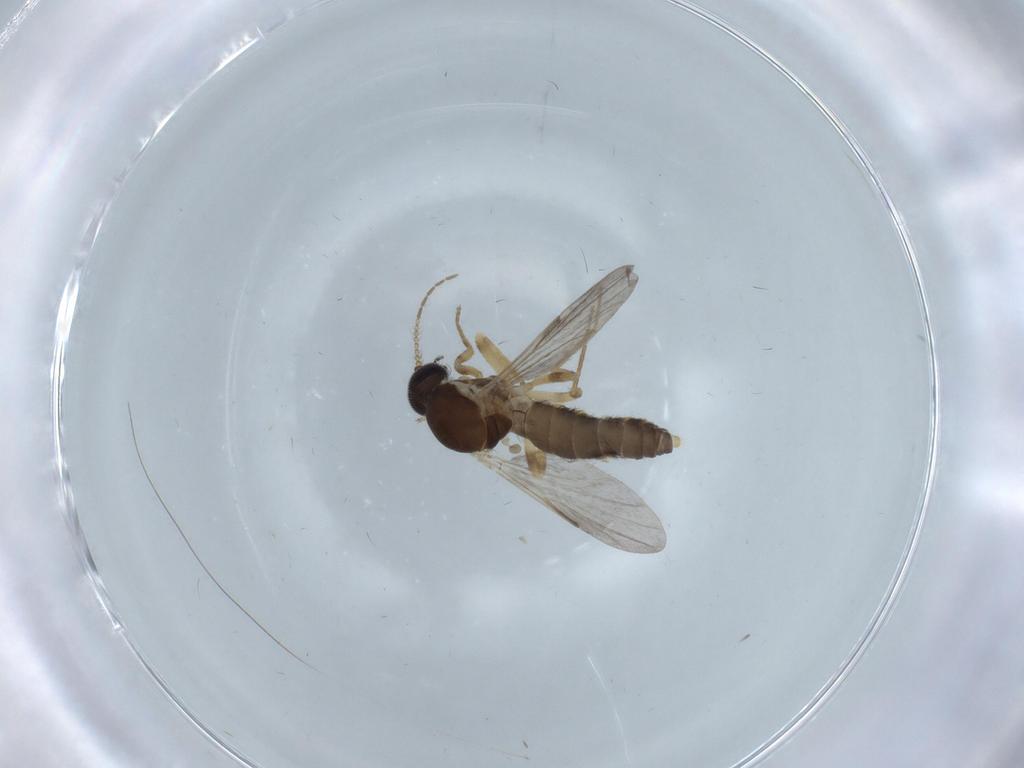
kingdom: Animalia
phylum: Arthropoda
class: Insecta
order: Diptera
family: Ceratopogonidae
